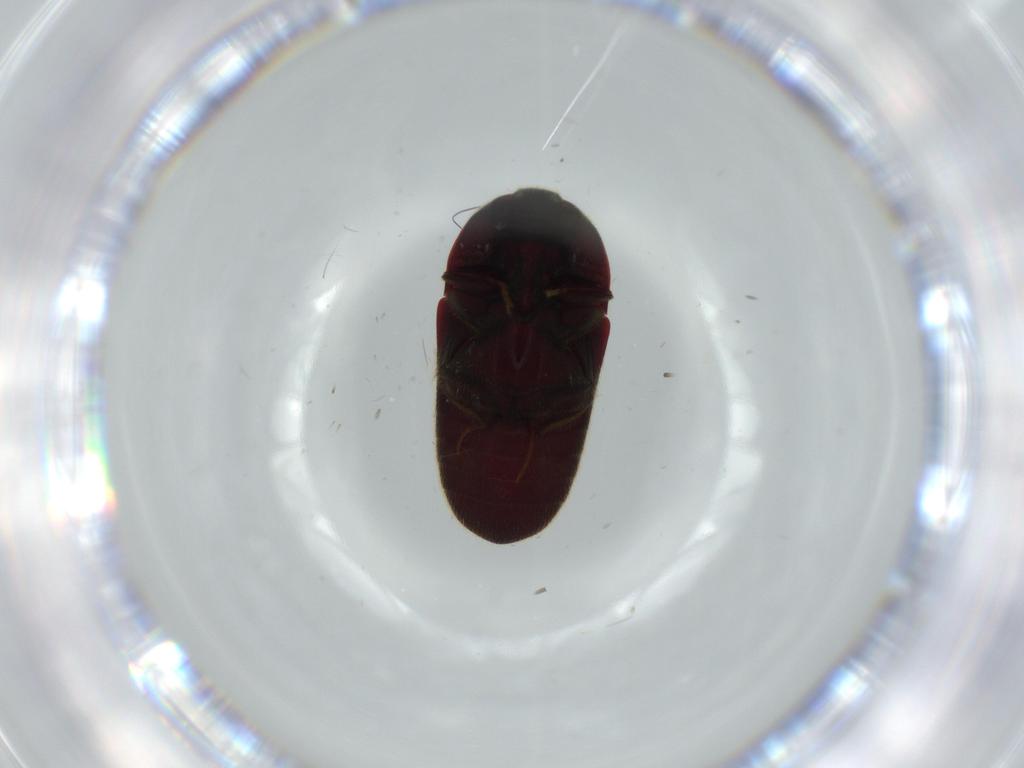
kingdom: Animalia
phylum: Arthropoda
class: Insecta
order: Coleoptera
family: Throscidae
